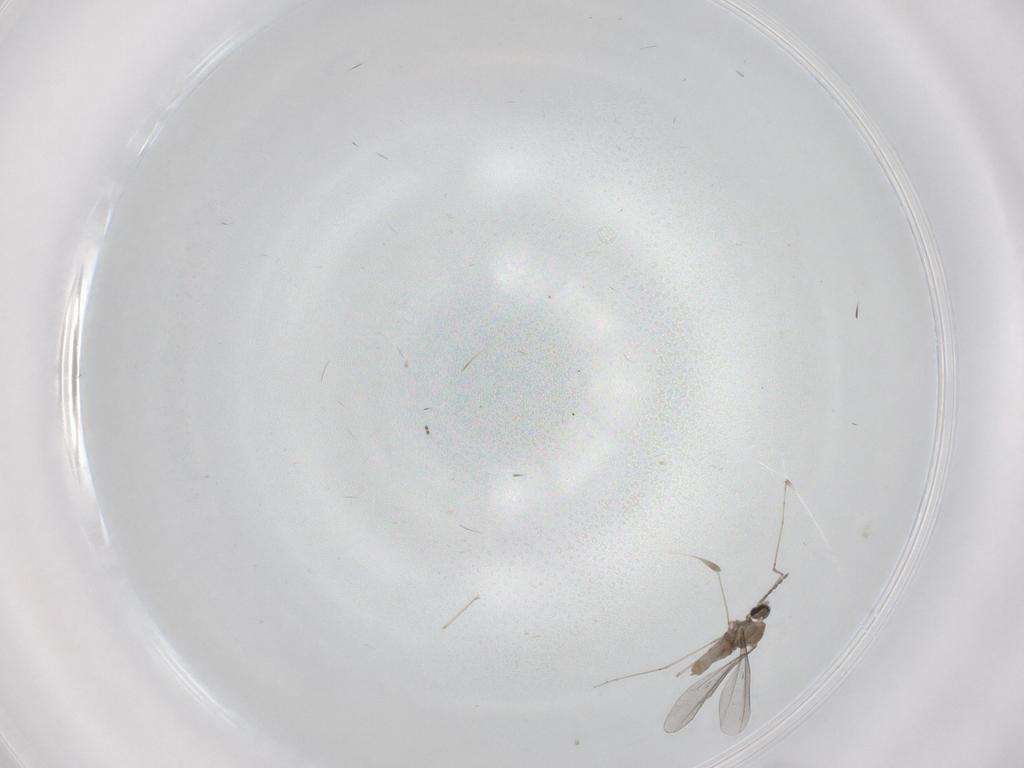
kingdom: Animalia
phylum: Arthropoda
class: Insecta
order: Diptera
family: Ceratopogonidae
